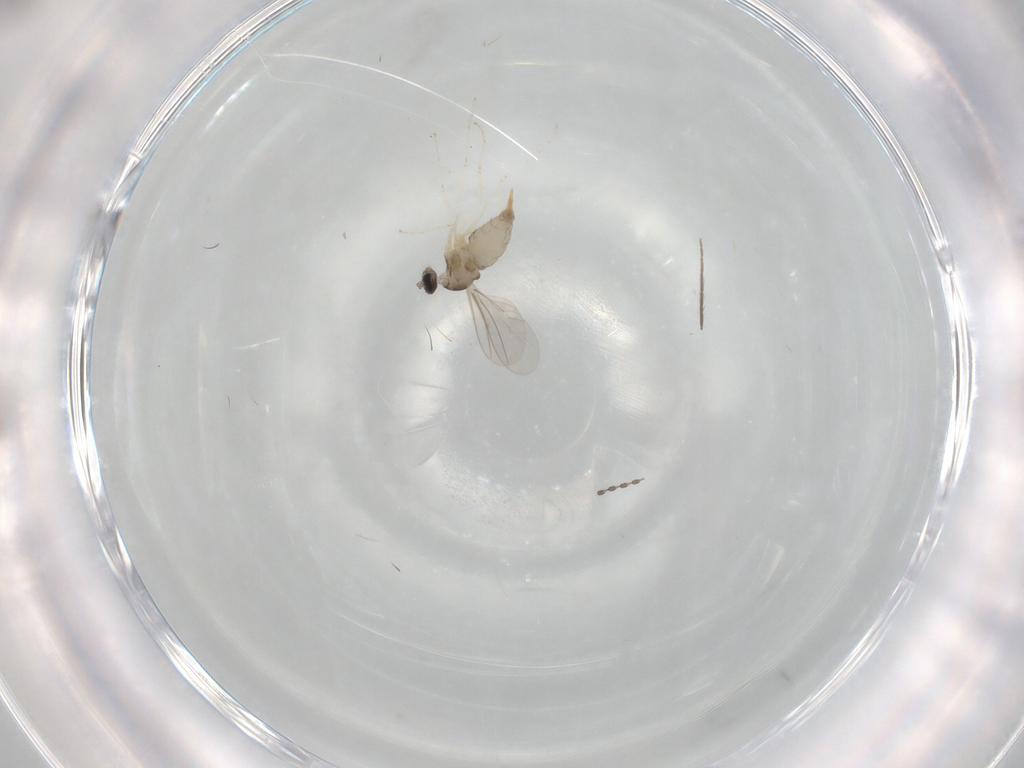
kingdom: Animalia
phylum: Arthropoda
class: Insecta
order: Diptera
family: Cecidomyiidae
